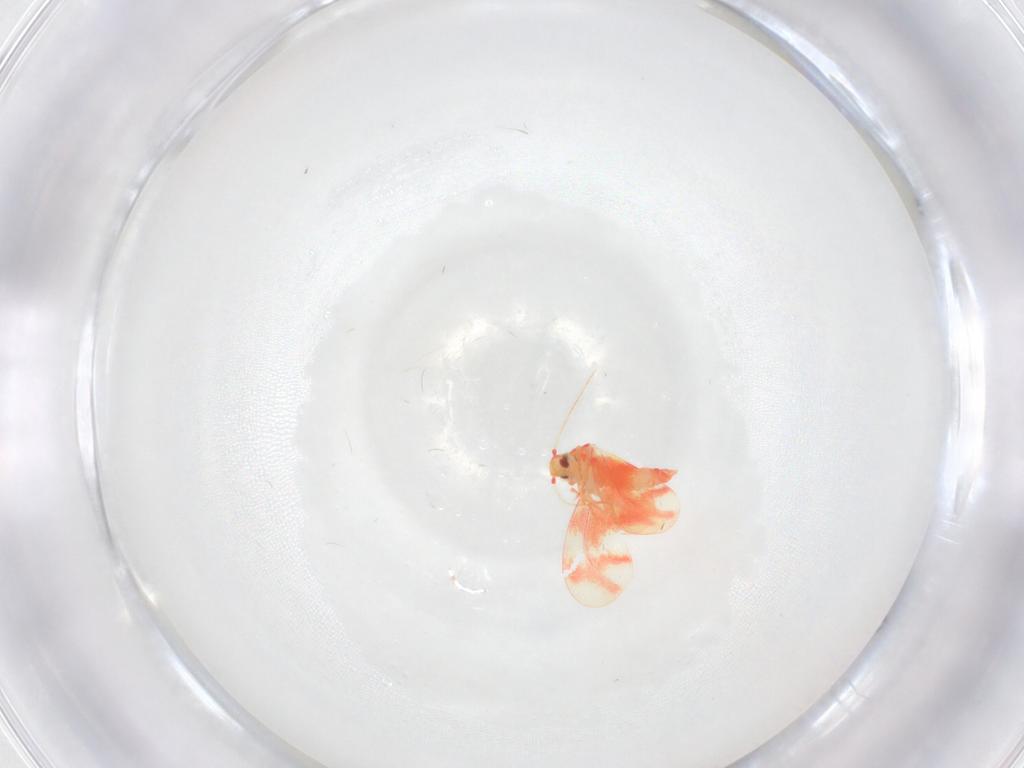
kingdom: Animalia
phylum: Arthropoda
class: Insecta
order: Hemiptera
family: Aleyrodidae
